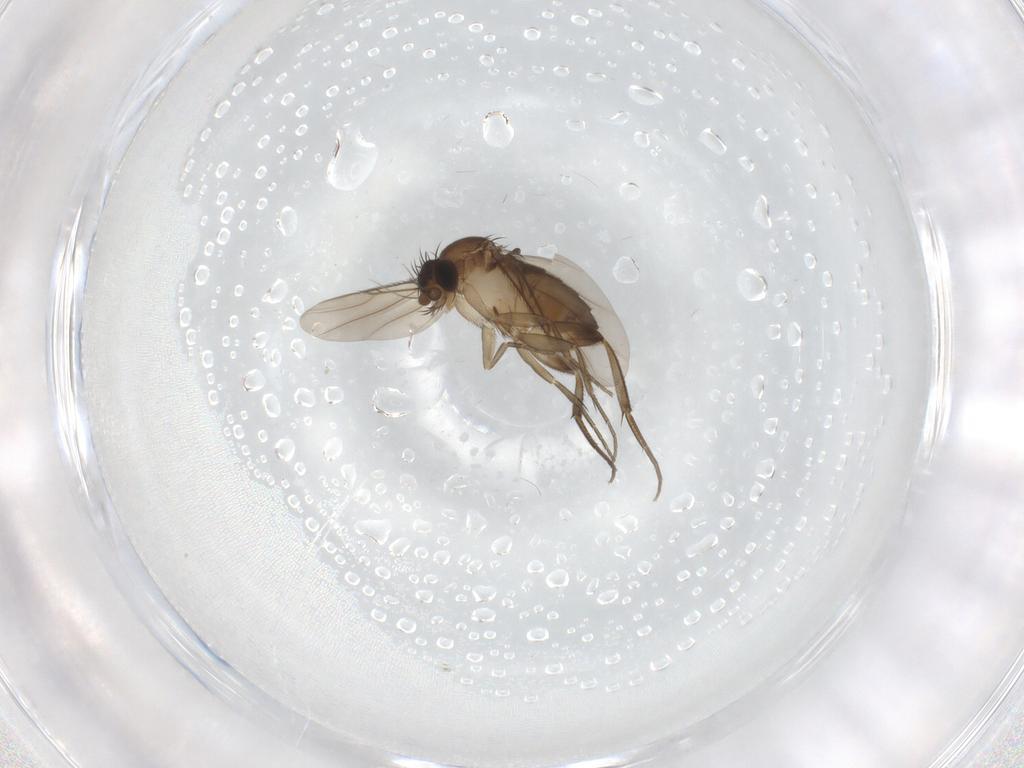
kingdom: Animalia
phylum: Arthropoda
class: Insecta
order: Diptera
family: Phoridae
